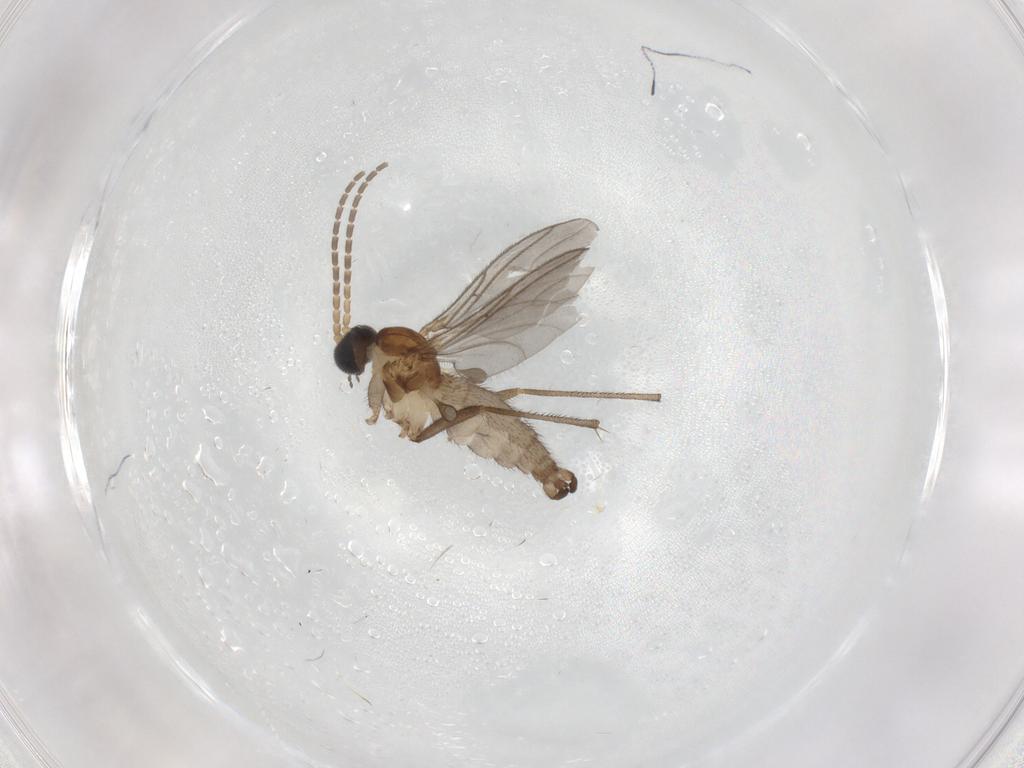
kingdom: Animalia
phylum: Arthropoda
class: Insecta
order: Diptera
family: Sciaridae
